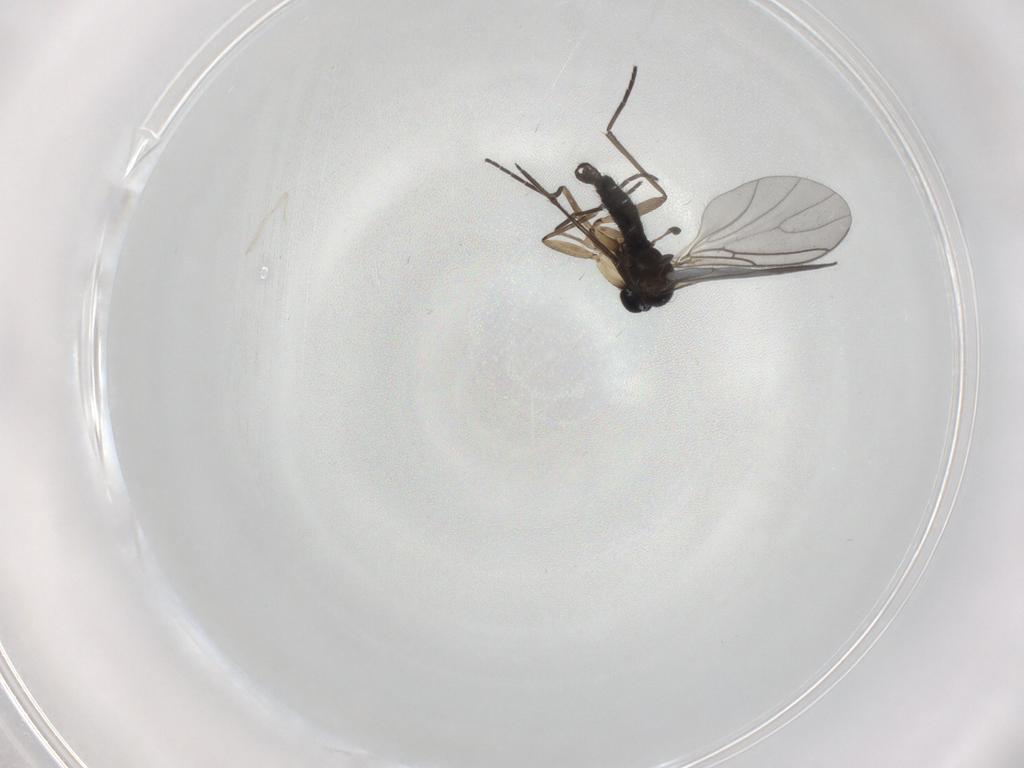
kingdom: Animalia
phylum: Arthropoda
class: Insecta
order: Diptera
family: Sciaridae
